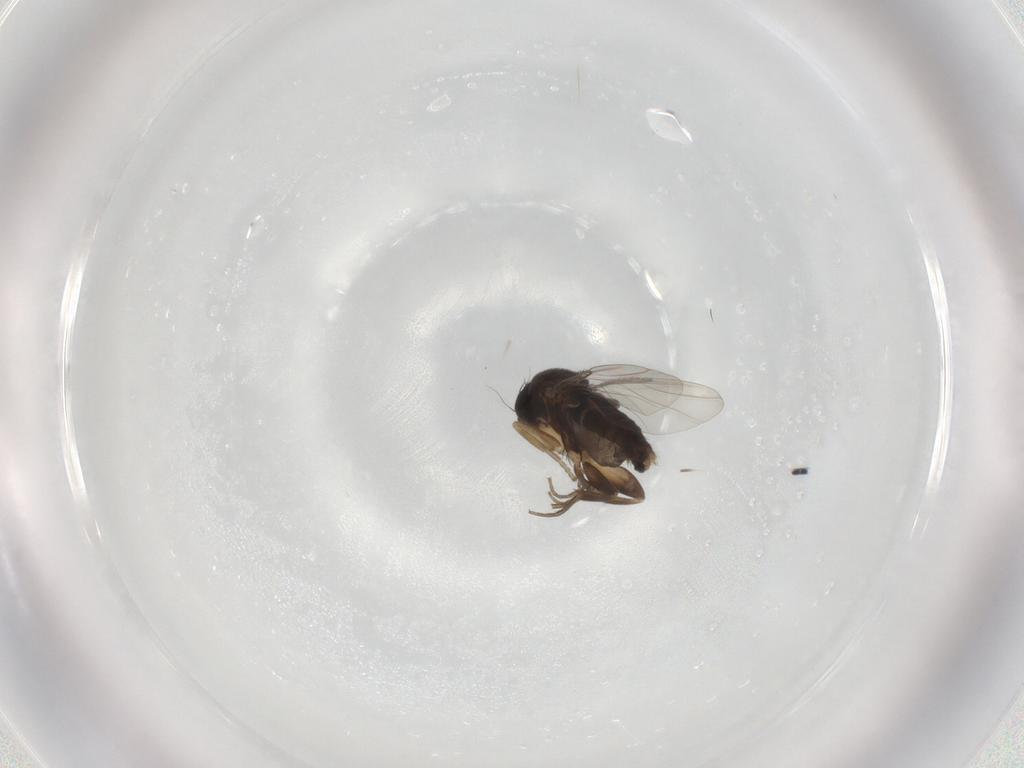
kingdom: Animalia
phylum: Arthropoda
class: Insecta
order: Diptera
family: Phoridae
